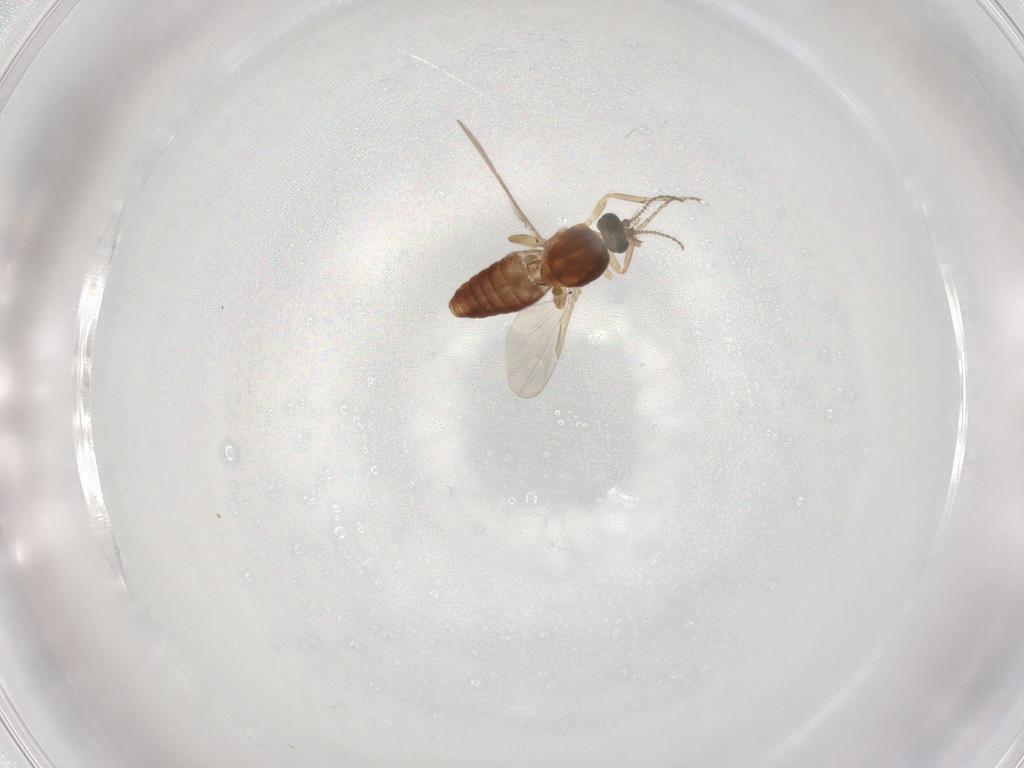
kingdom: Animalia
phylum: Arthropoda
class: Insecta
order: Diptera
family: Ceratopogonidae
